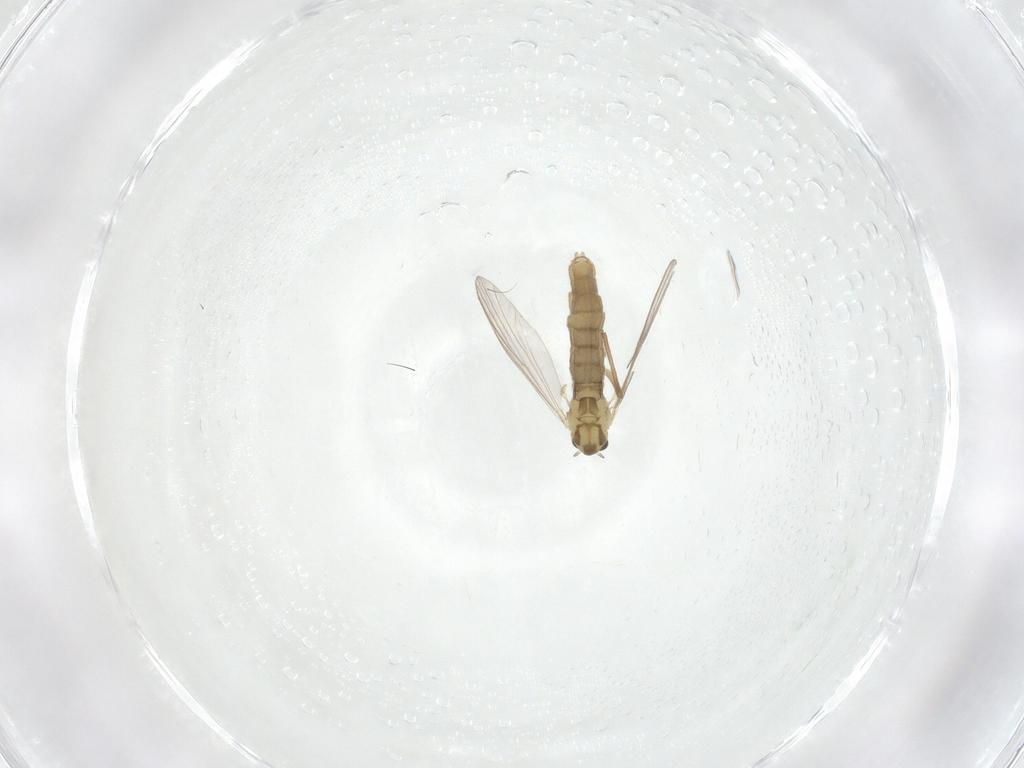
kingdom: Animalia
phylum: Arthropoda
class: Insecta
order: Diptera
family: Chironomidae
